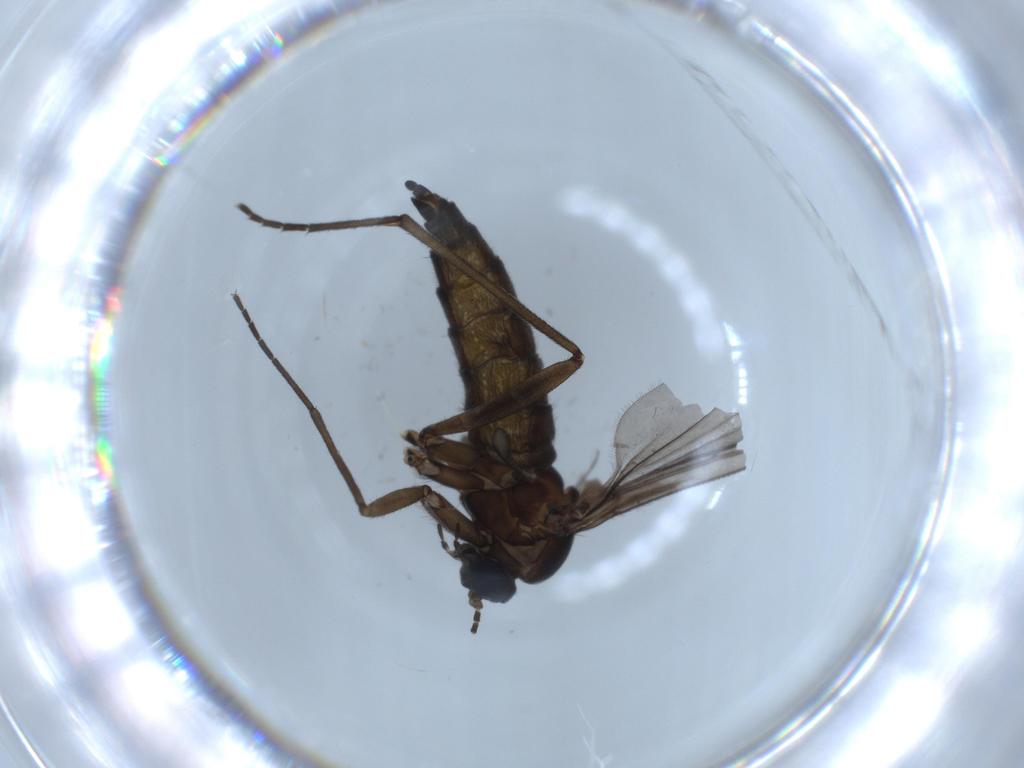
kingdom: Animalia
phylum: Arthropoda
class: Insecta
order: Diptera
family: Sciaridae
